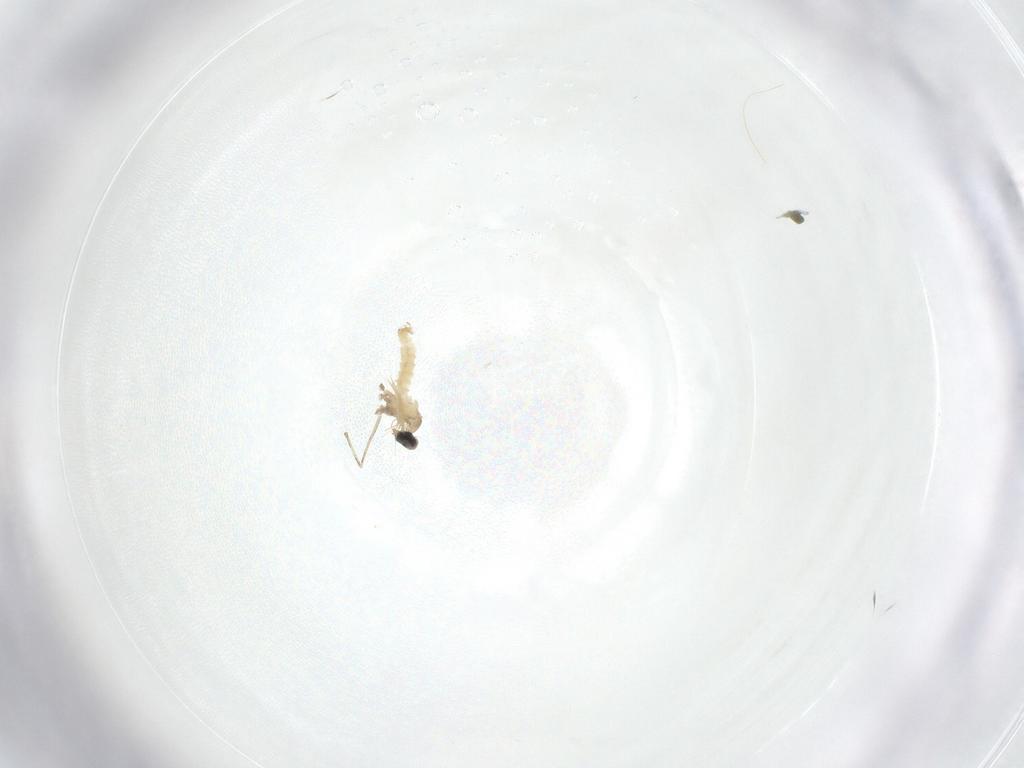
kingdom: Animalia
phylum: Arthropoda
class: Insecta
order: Diptera
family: Cecidomyiidae
